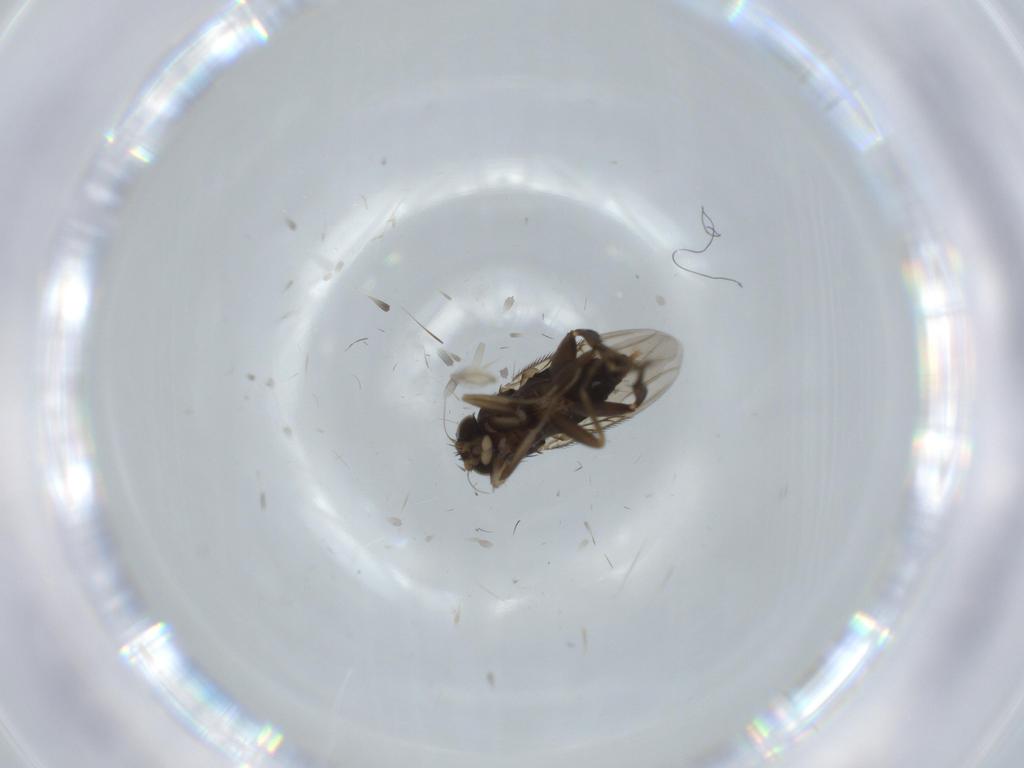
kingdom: Animalia
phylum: Arthropoda
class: Insecta
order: Diptera
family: Phoridae
